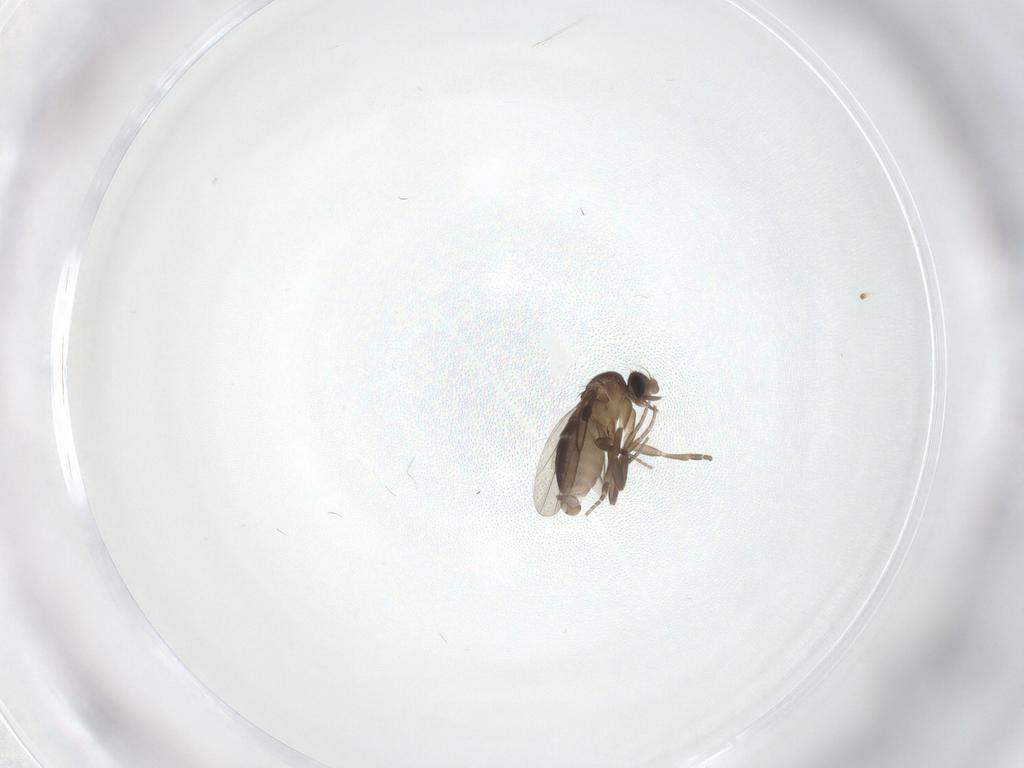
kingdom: Animalia
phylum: Arthropoda
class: Insecta
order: Diptera
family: Phoridae
